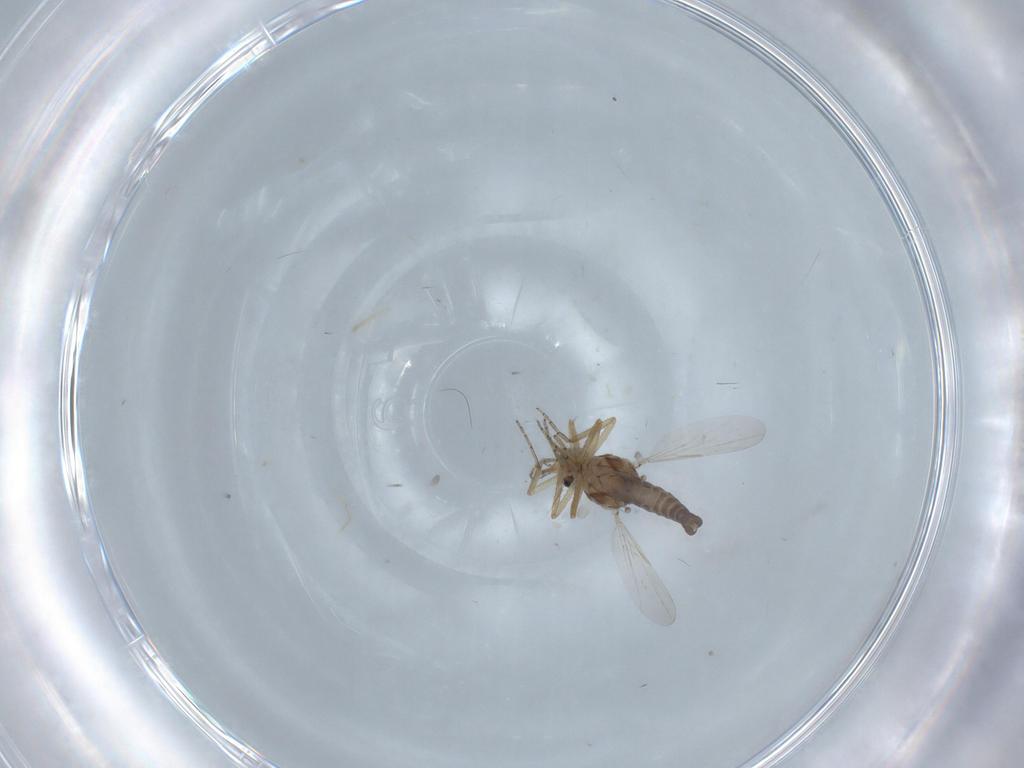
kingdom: Animalia
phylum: Arthropoda
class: Insecta
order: Diptera
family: Ceratopogonidae
